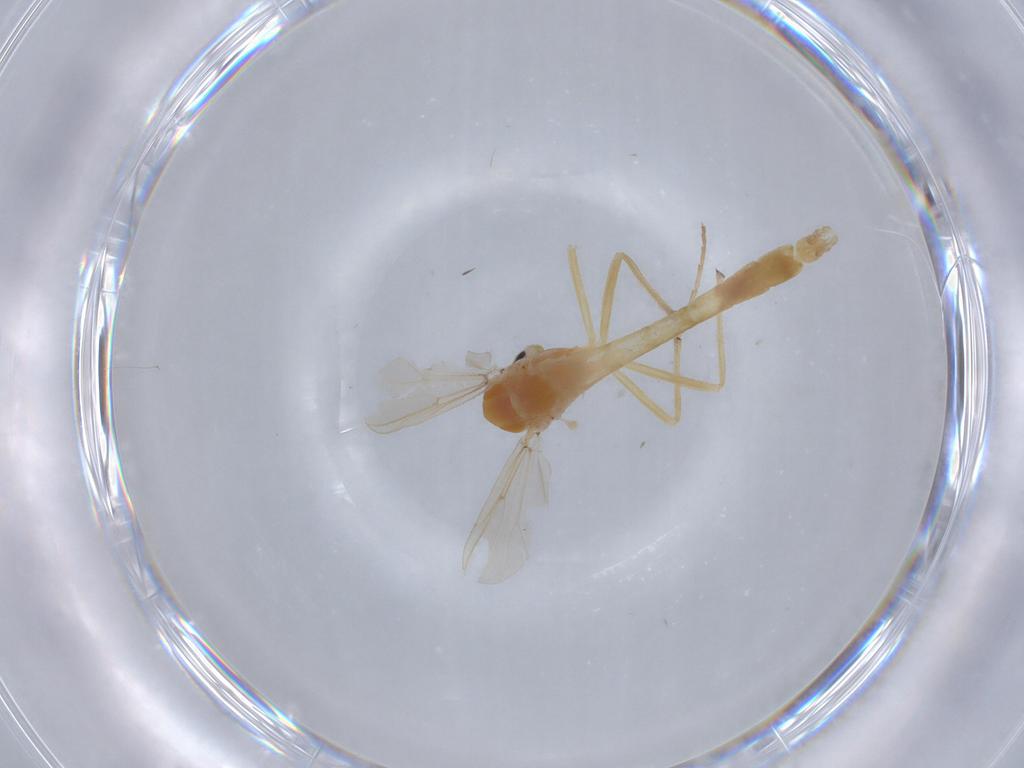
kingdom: Animalia
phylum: Arthropoda
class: Insecta
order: Diptera
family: Chironomidae
